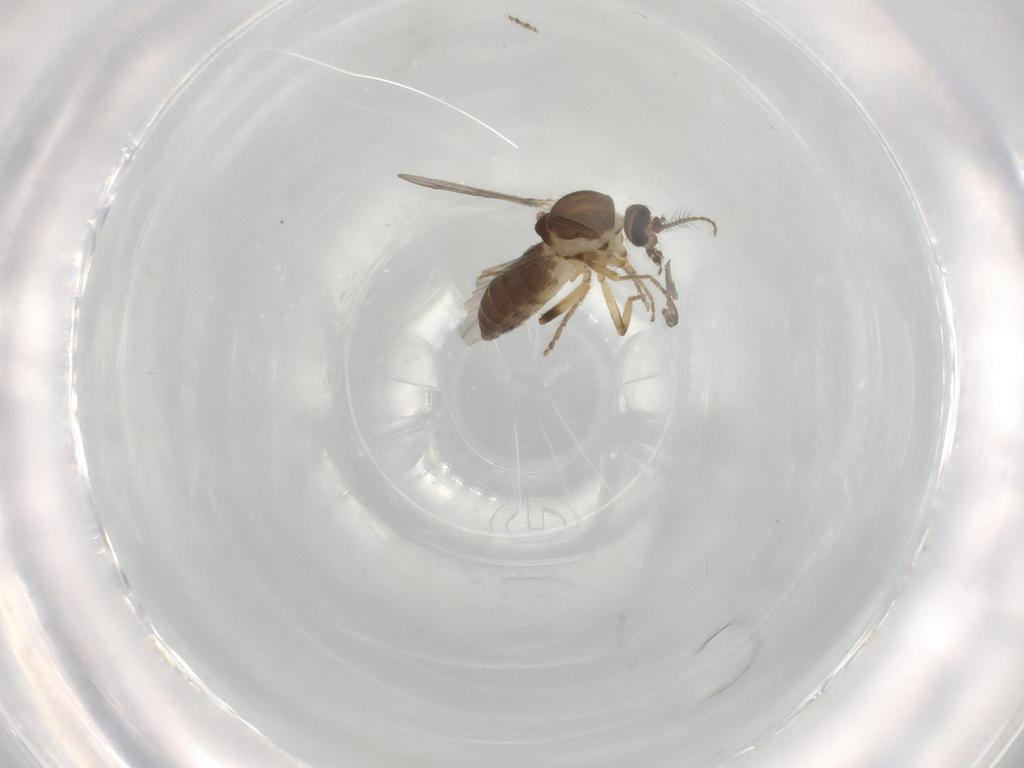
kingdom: Animalia
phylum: Arthropoda
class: Insecta
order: Diptera
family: Ceratopogonidae
